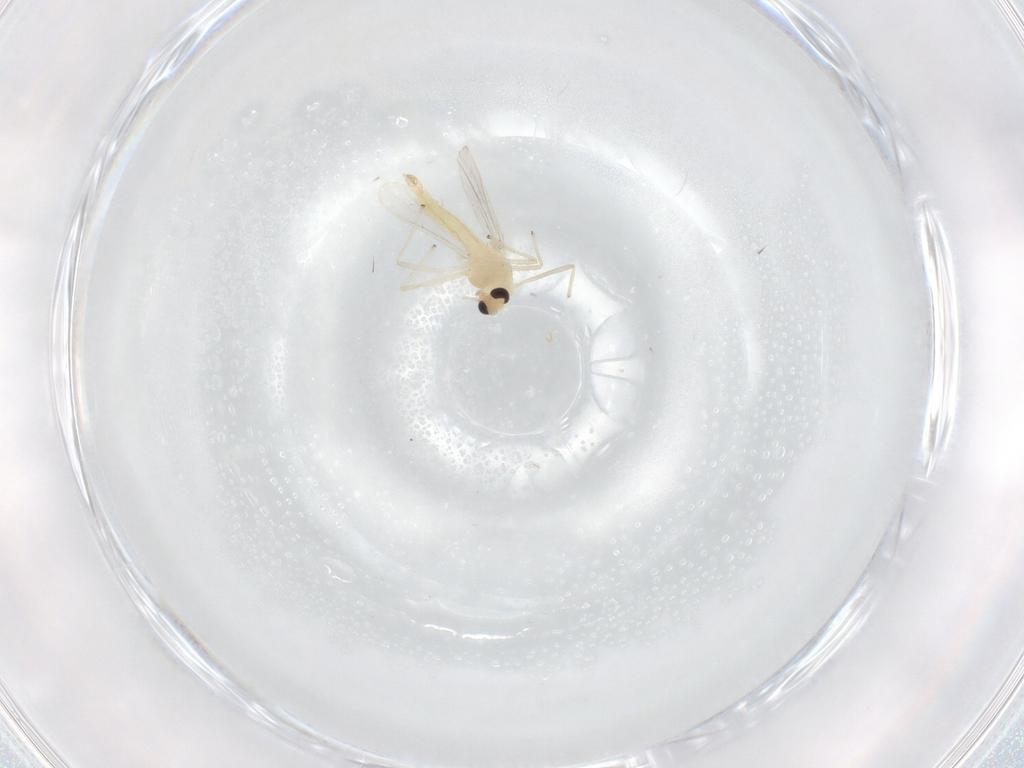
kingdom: Animalia
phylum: Arthropoda
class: Insecta
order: Diptera
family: Chironomidae
